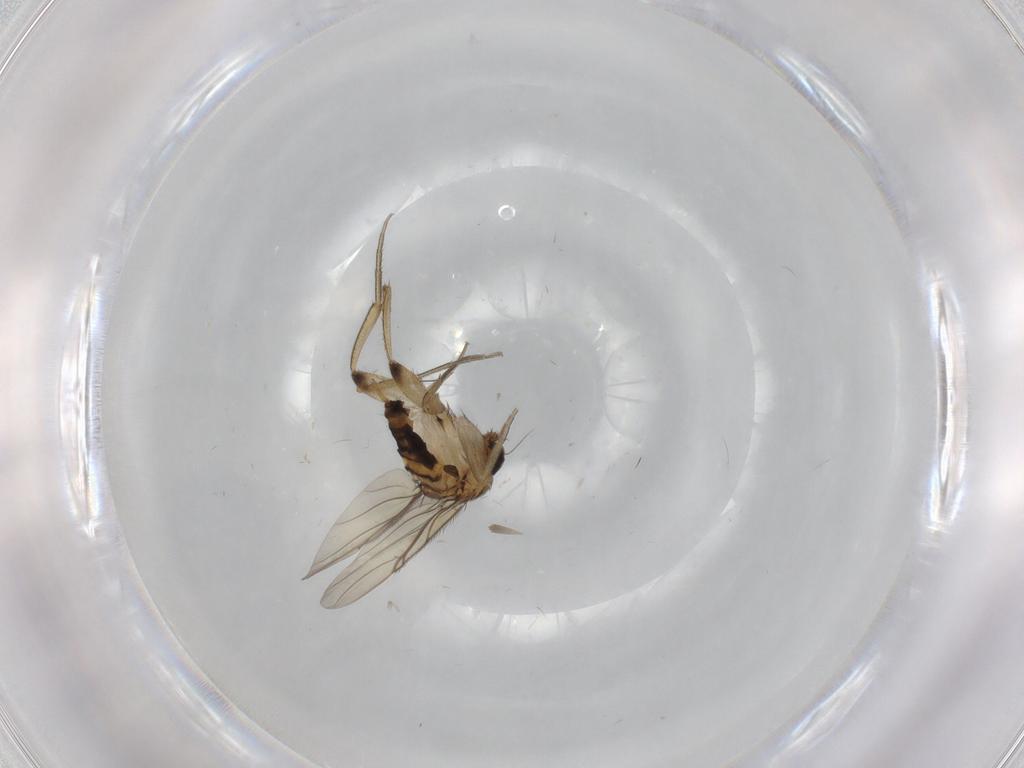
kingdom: Animalia
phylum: Arthropoda
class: Insecta
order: Diptera
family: Phoridae
